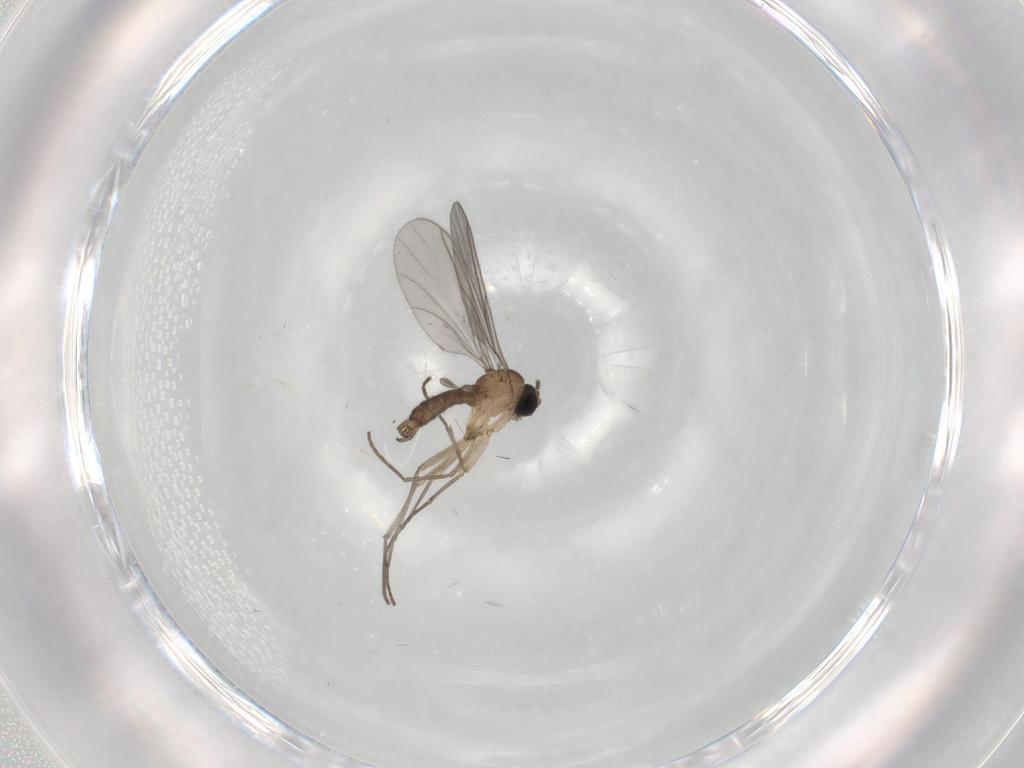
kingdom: Animalia
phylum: Arthropoda
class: Insecta
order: Diptera
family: Sciaridae
